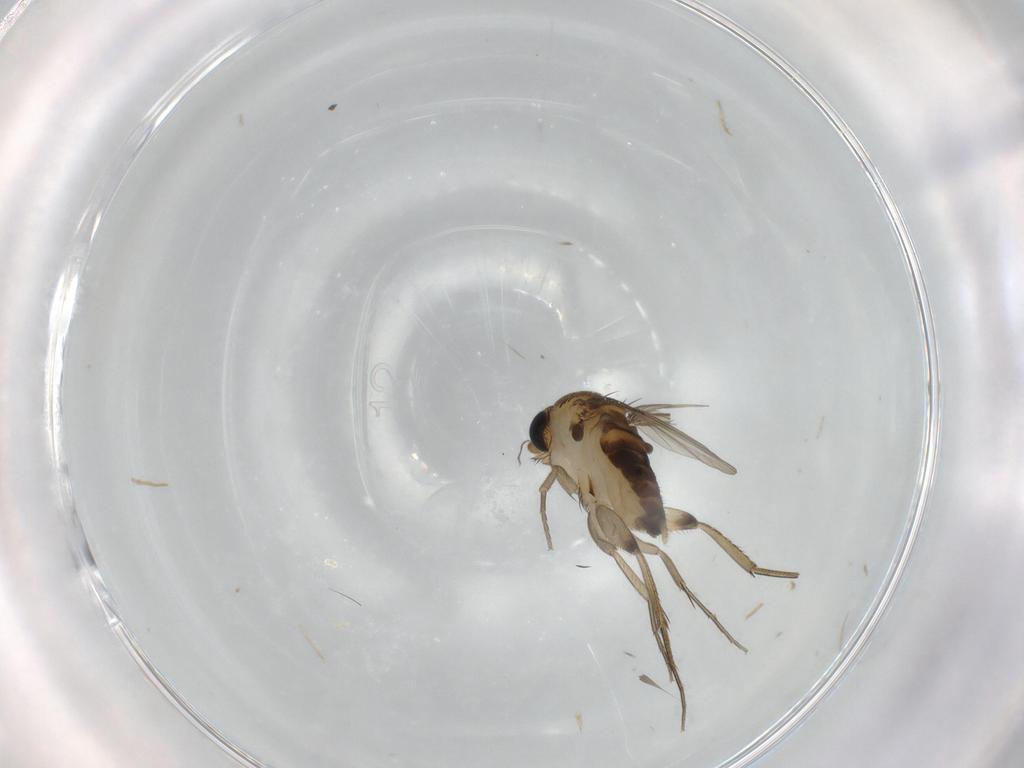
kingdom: Animalia
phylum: Arthropoda
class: Insecta
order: Diptera
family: Phoridae
